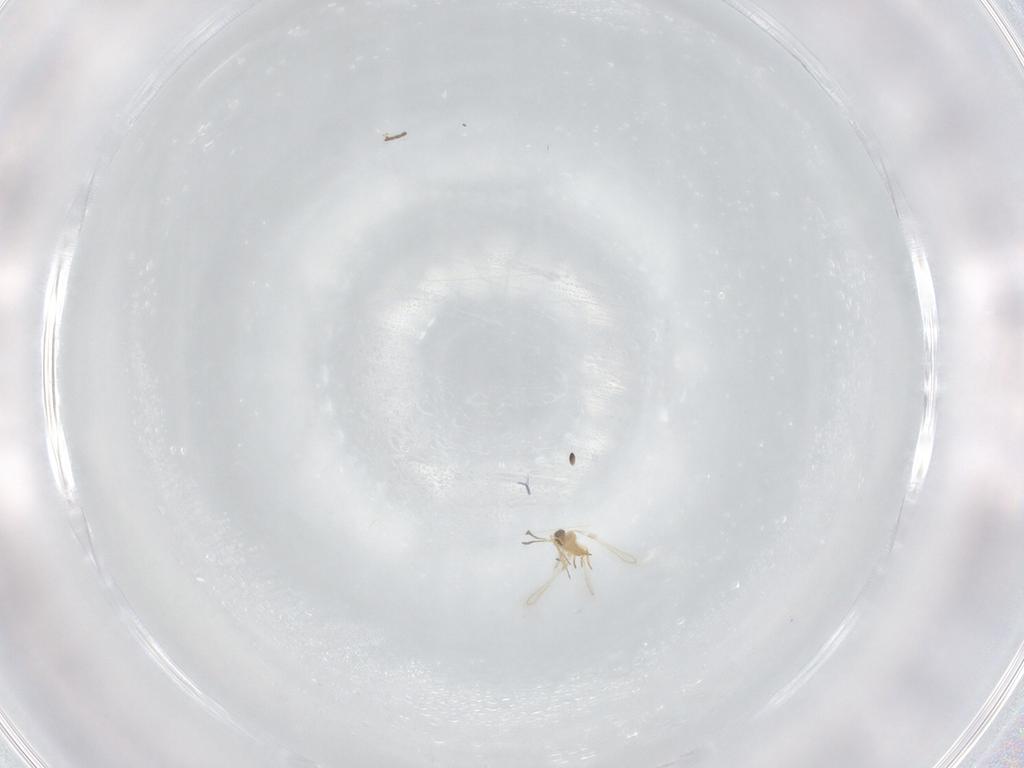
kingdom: Animalia
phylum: Arthropoda
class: Insecta
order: Hymenoptera
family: Mymaridae
